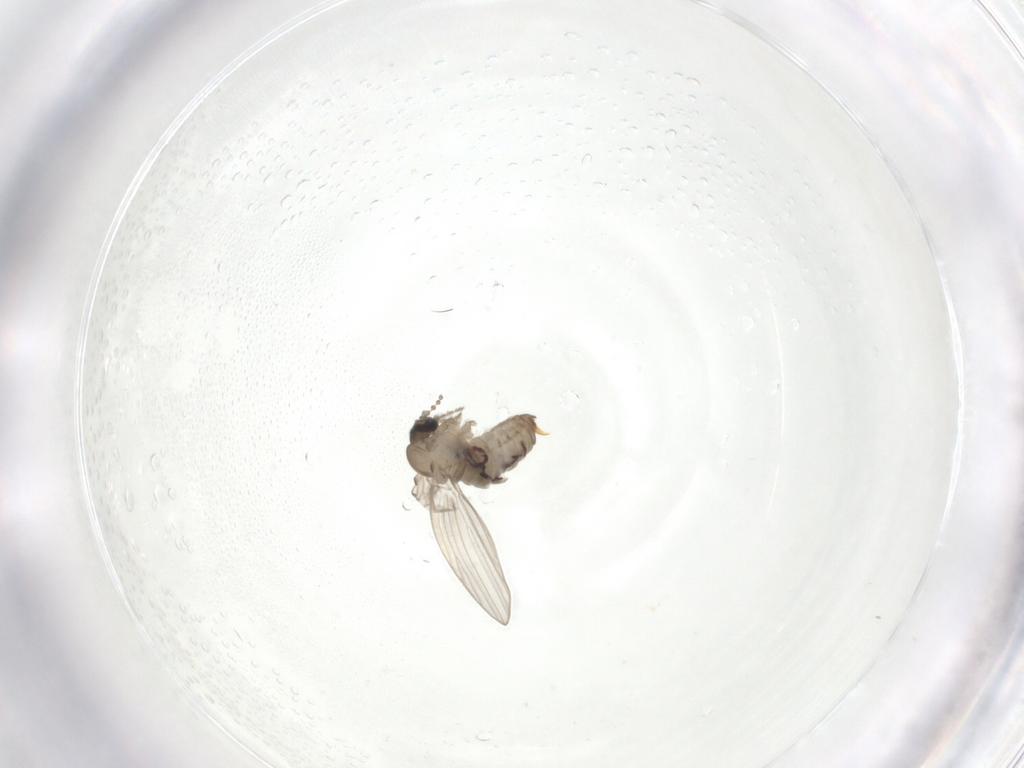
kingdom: Animalia
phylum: Arthropoda
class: Insecta
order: Diptera
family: Psychodidae
